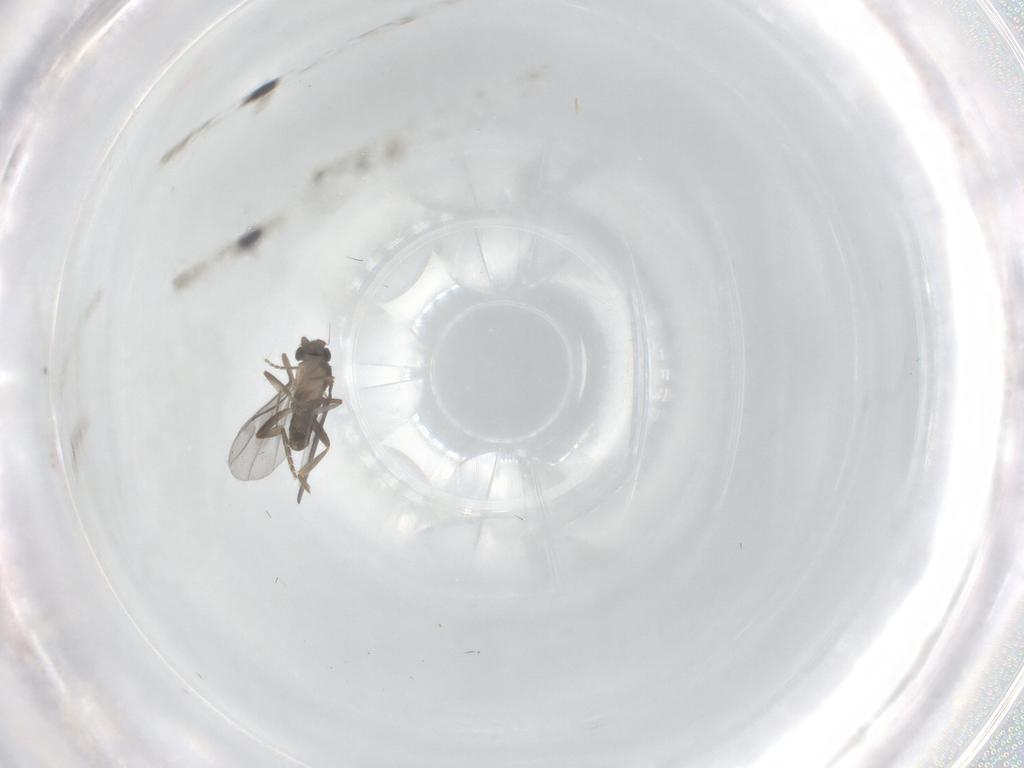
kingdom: Animalia
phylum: Arthropoda
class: Insecta
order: Diptera
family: Phoridae
